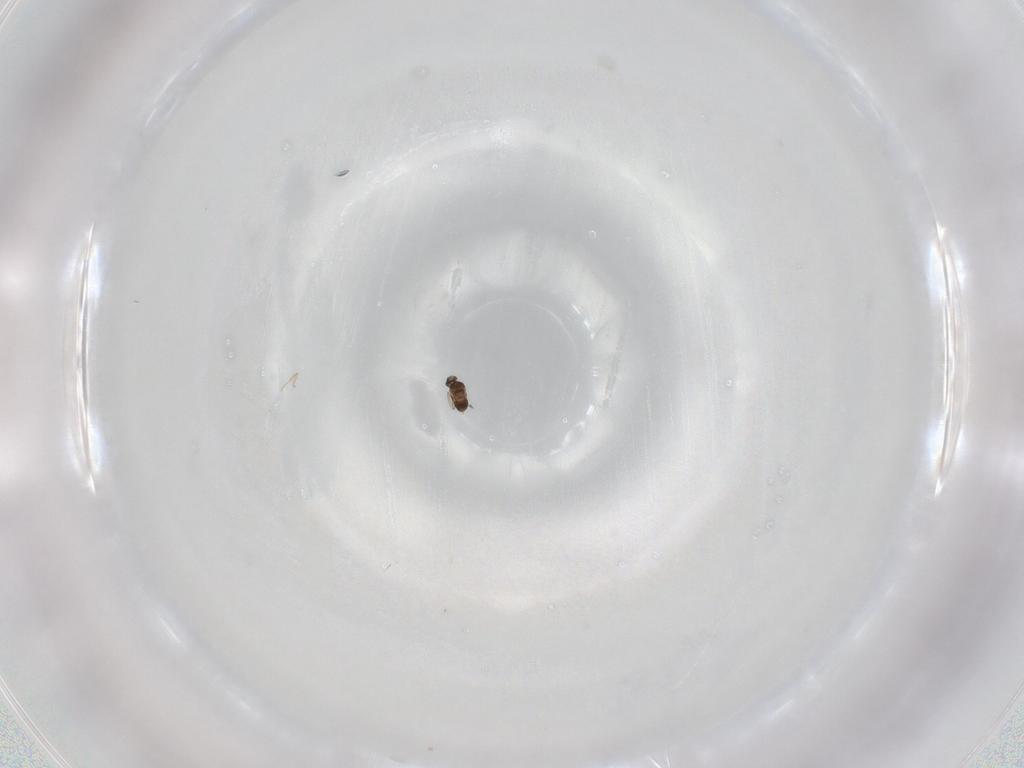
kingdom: Animalia
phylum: Arthropoda
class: Insecta
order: Hymenoptera
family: Mymaridae
